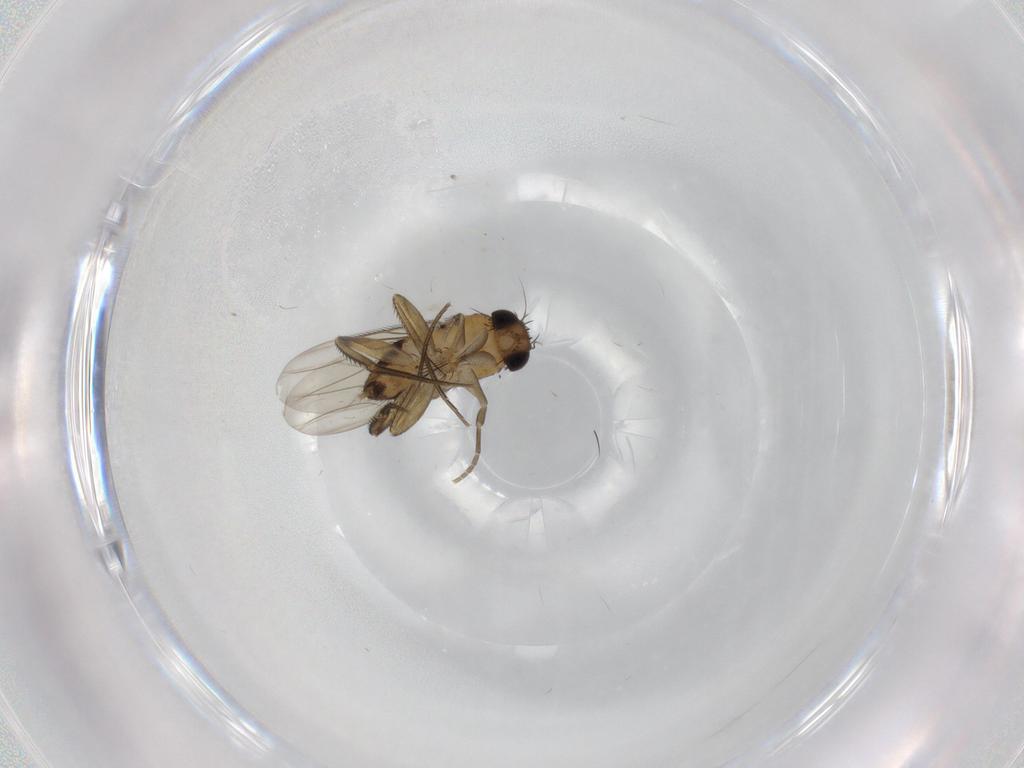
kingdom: Animalia
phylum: Arthropoda
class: Insecta
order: Diptera
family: Phoridae
